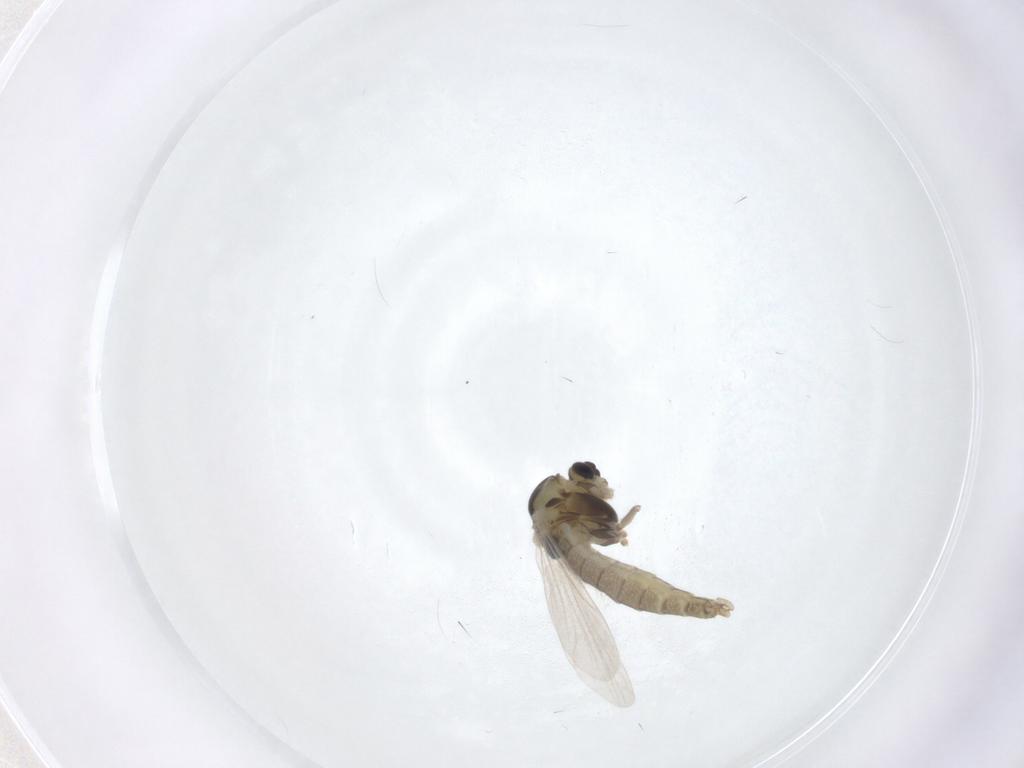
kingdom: Animalia
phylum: Arthropoda
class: Insecta
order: Diptera
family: Chironomidae
